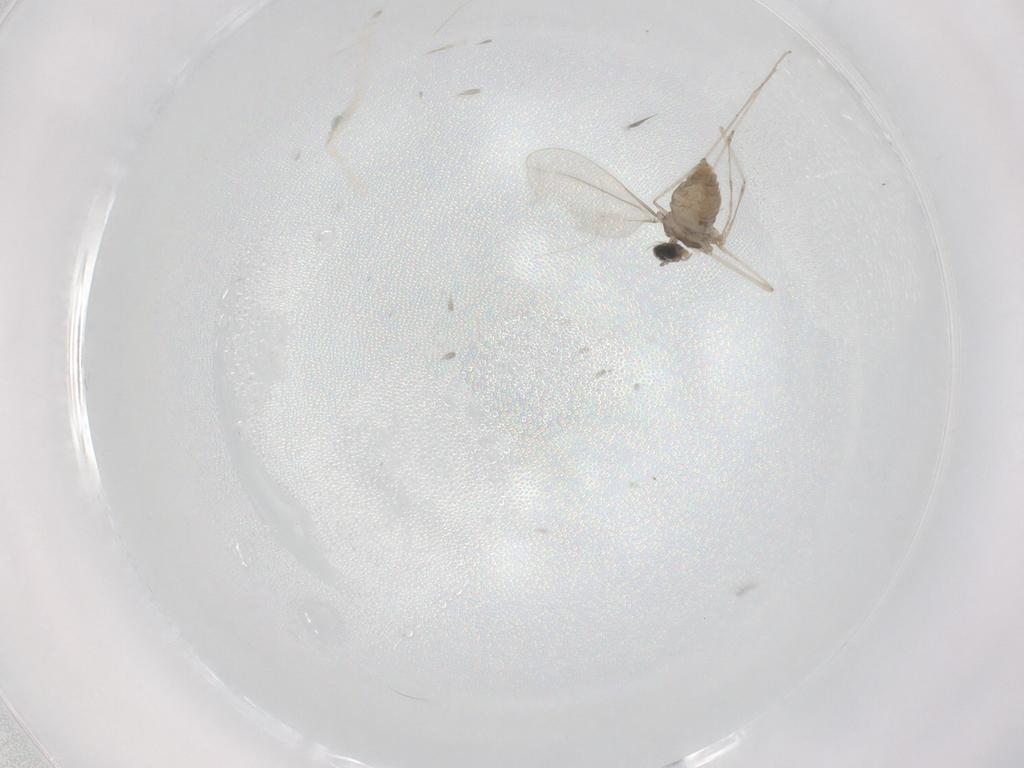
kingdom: Animalia
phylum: Arthropoda
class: Insecta
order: Diptera
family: Cecidomyiidae
